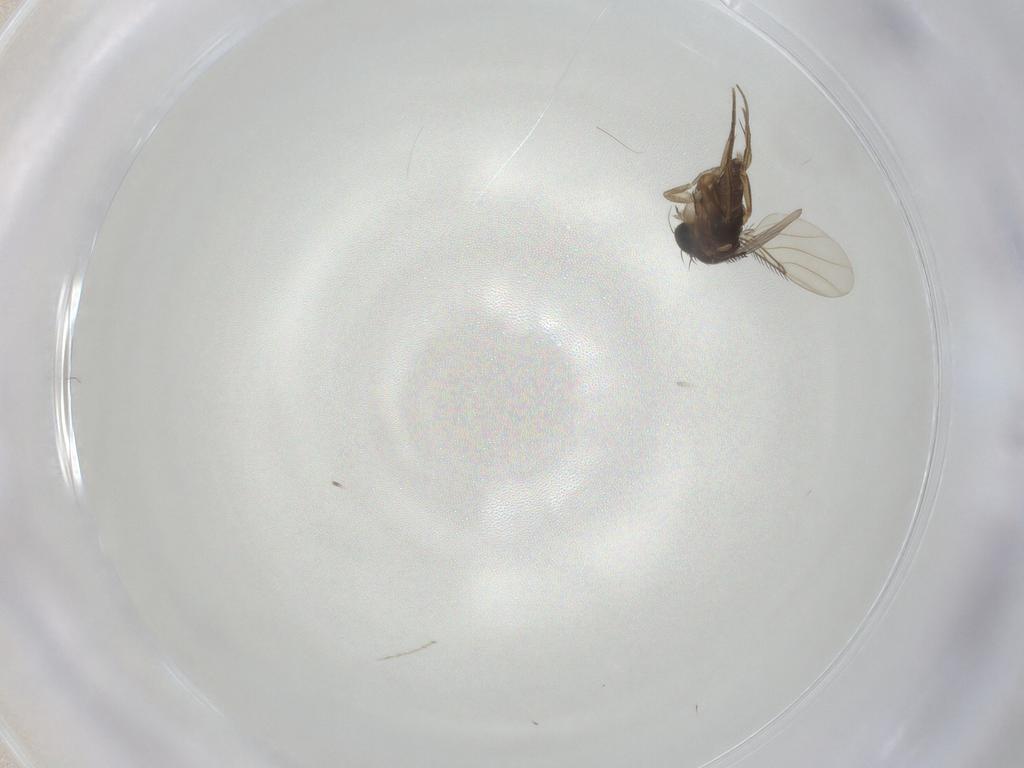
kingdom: Animalia
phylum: Arthropoda
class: Insecta
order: Diptera
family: Phoridae
